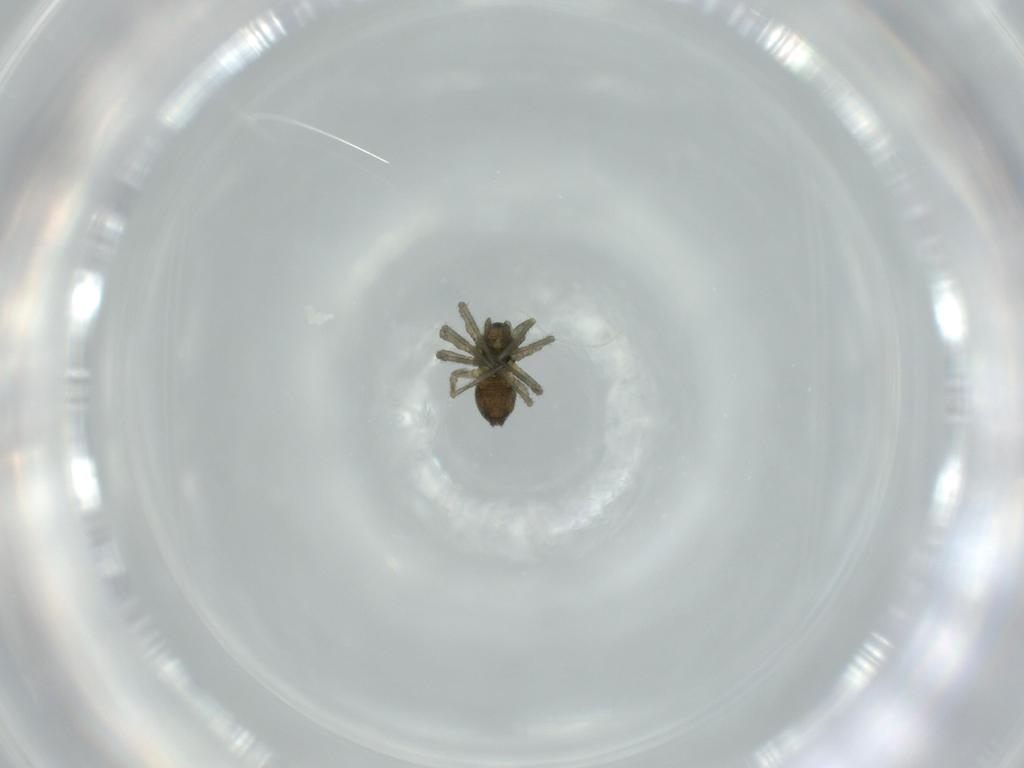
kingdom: Animalia
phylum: Arthropoda
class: Arachnida
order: Araneae
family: Linyphiidae
